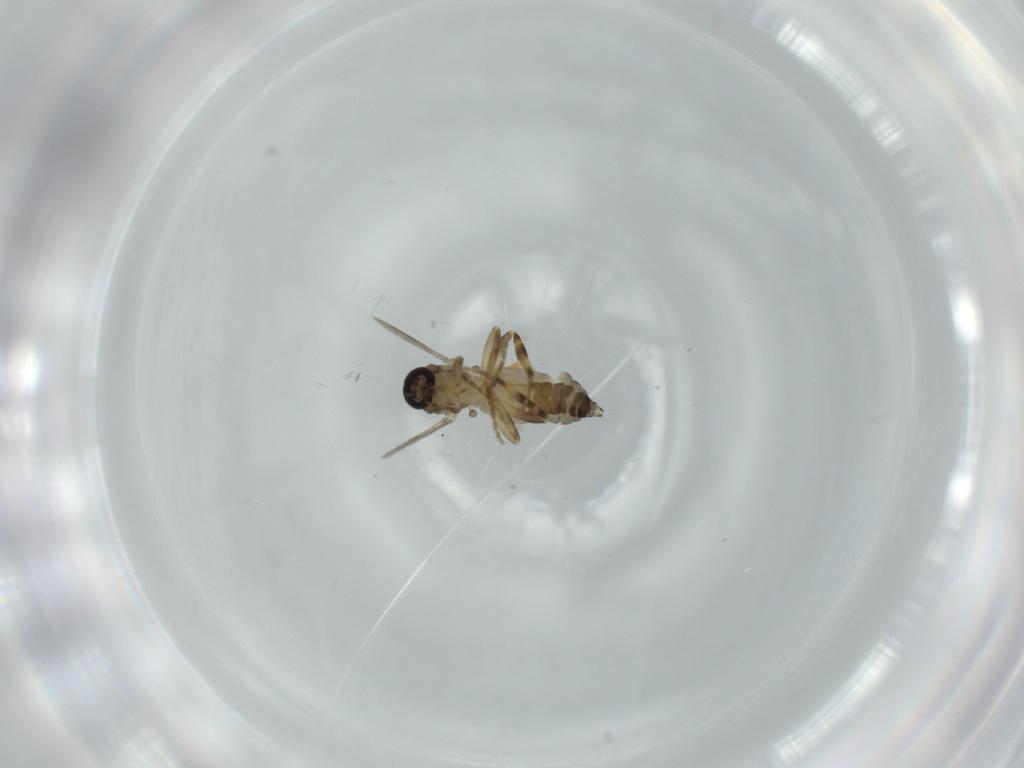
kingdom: Animalia
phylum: Arthropoda
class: Insecta
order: Diptera
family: Ceratopogonidae
